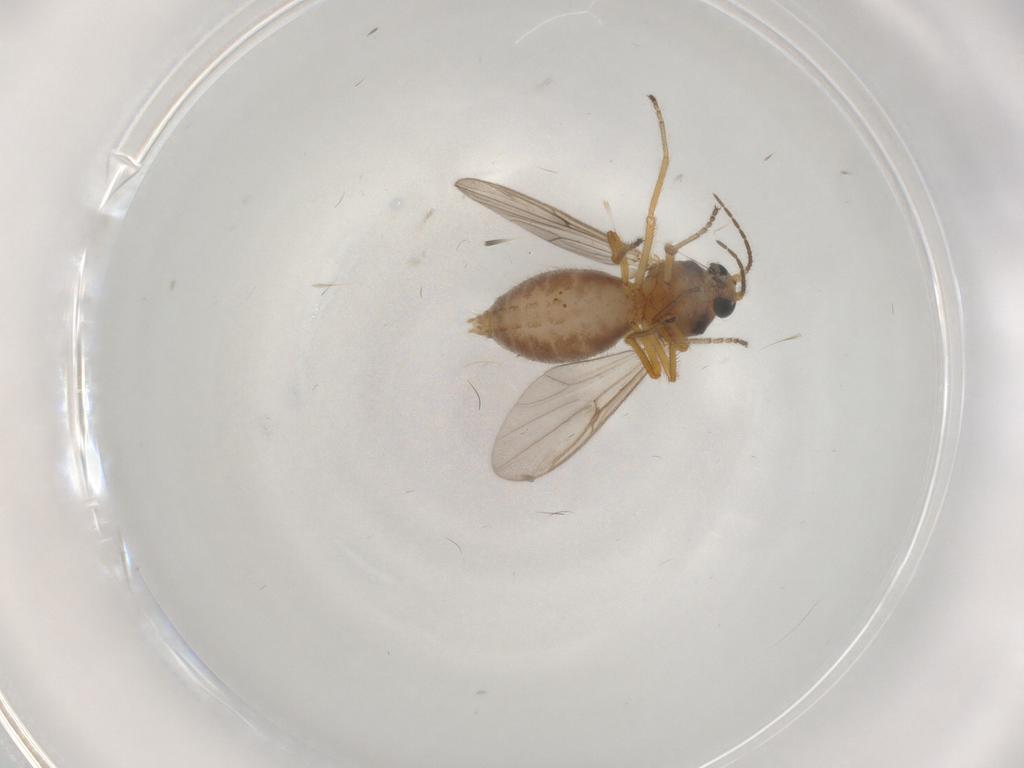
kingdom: Animalia
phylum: Arthropoda
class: Insecta
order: Diptera
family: Ceratopogonidae
